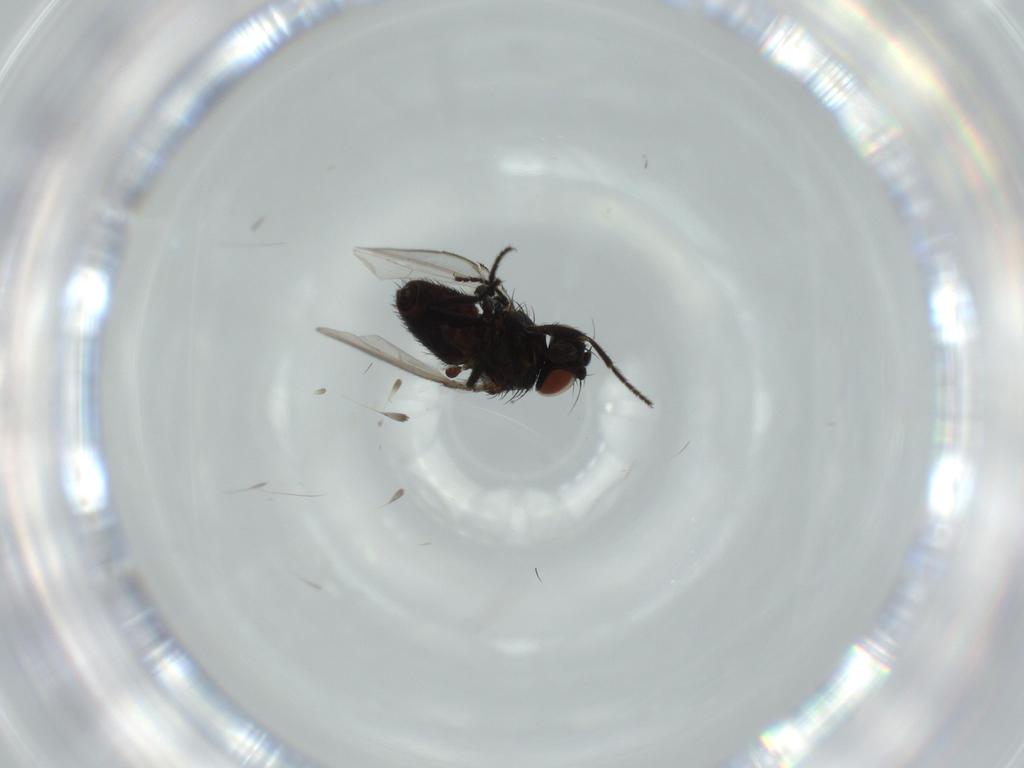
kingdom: Animalia
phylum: Arthropoda
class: Insecta
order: Diptera
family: Milichiidae
